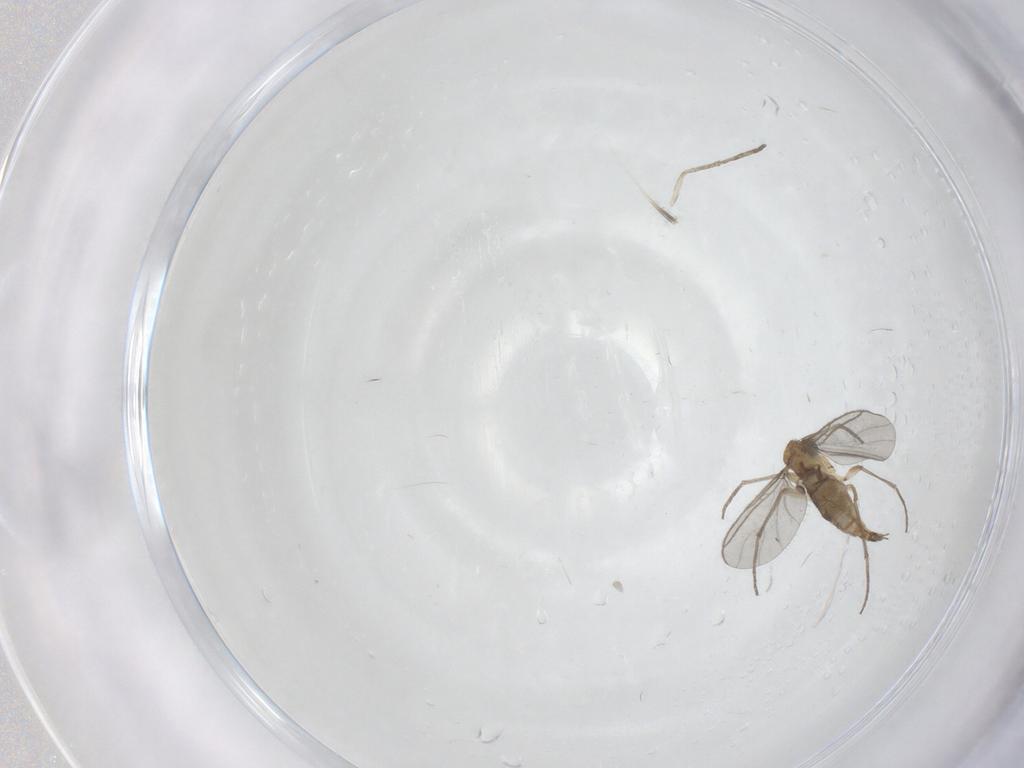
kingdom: Animalia
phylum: Arthropoda
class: Insecta
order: Diptera
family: Sciaridae
